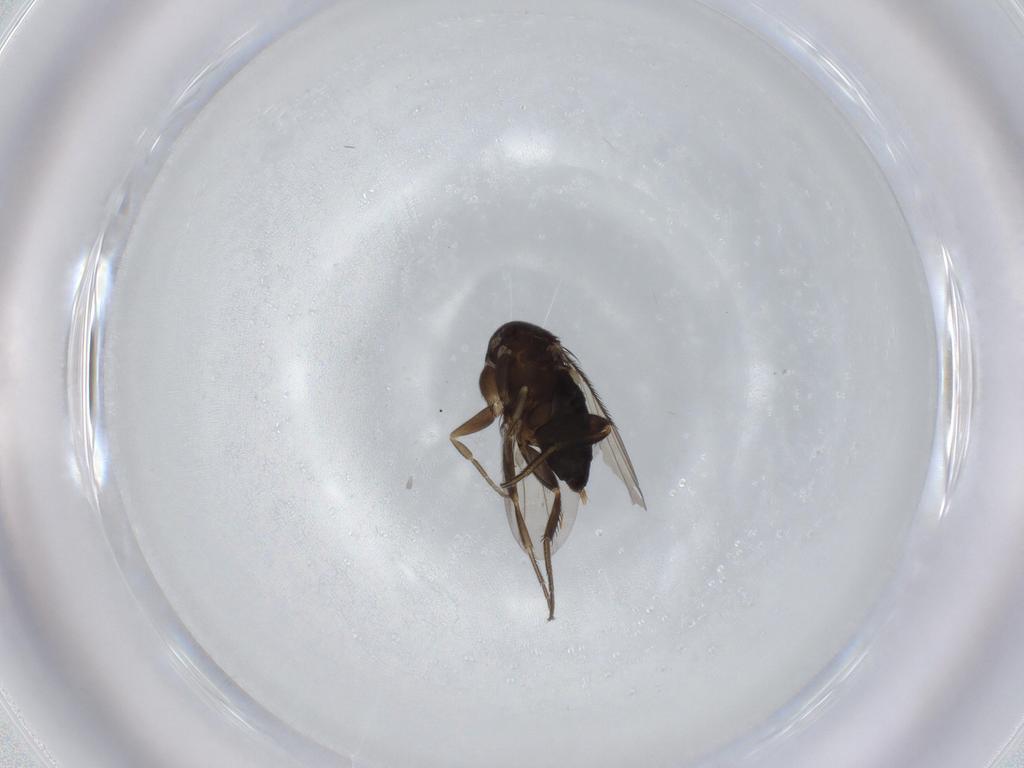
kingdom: Animalia
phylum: Arthropoda
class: Insecta
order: Diptera
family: Phoridae
